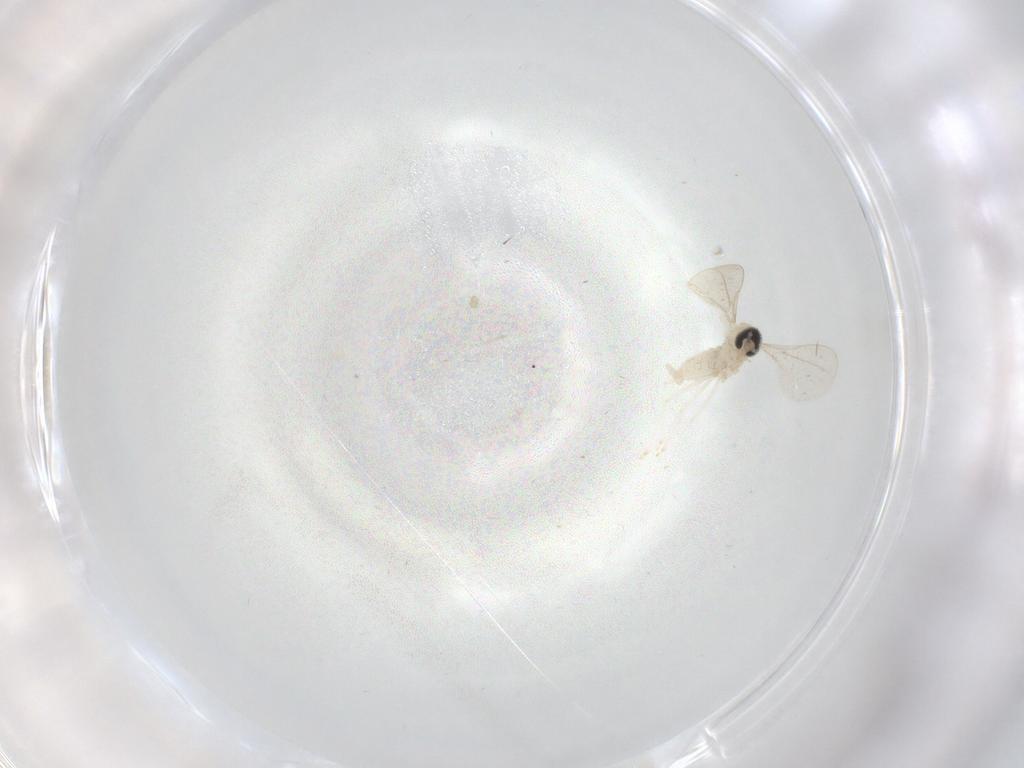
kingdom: Animalia
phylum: Arthropoda
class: Insecta
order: Diptera
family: Cecidomyiidae
